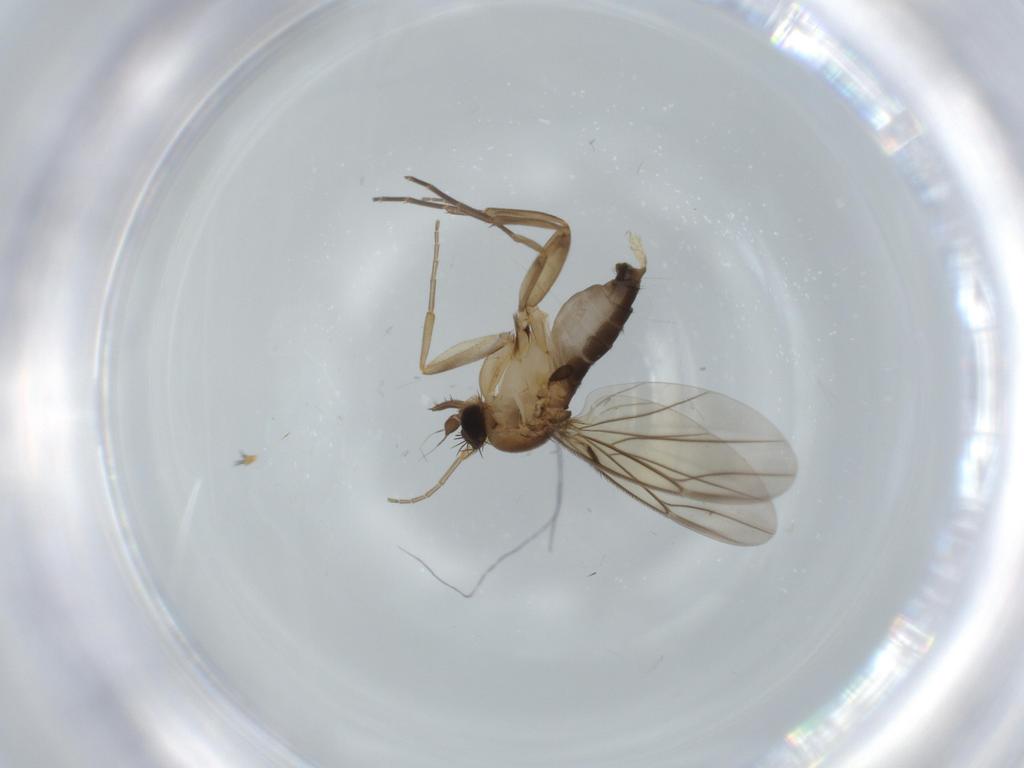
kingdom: Animalia
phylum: Arthropoda
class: Insecta
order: Diptera
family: Phoridae
